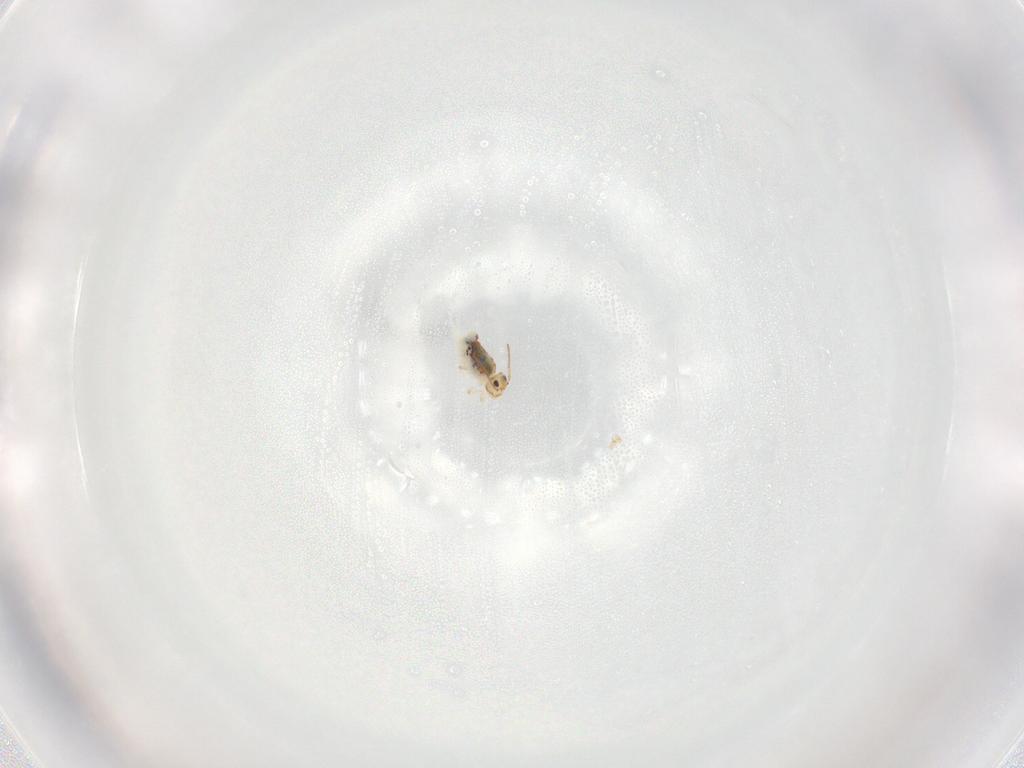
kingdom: Animalia
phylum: Arthropoda
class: Collembola
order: Symphypleona
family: Bourletiellidae
